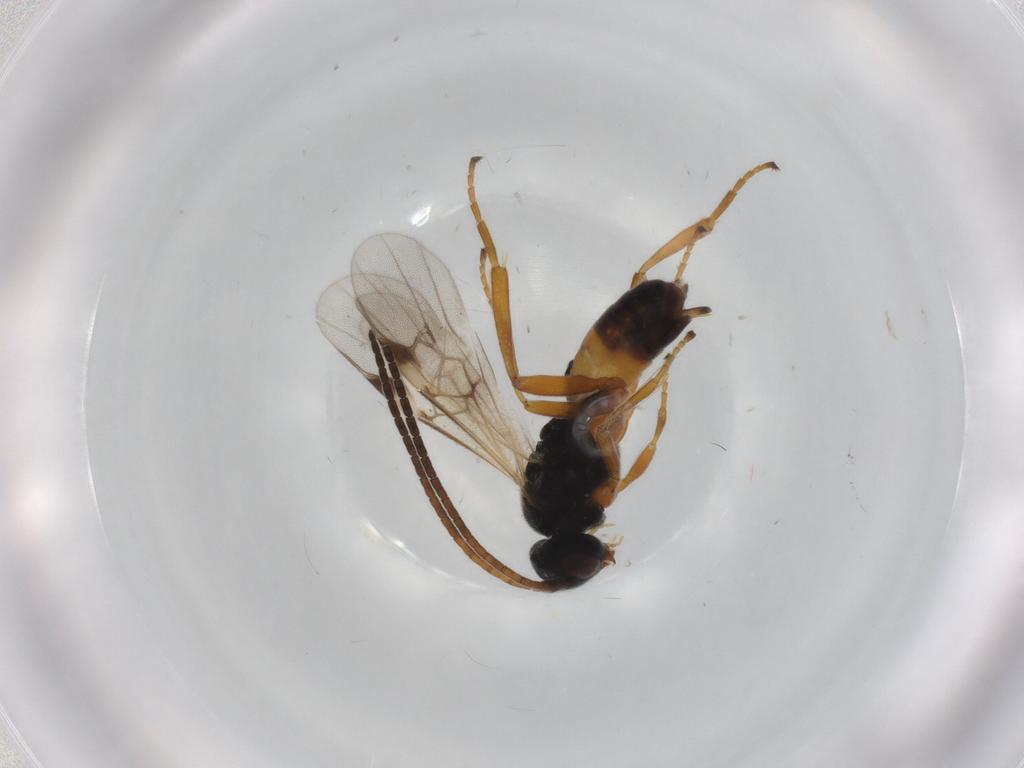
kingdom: Animalia
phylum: Arthropoda
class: Insecta
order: Hymenoptera
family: Braconidae
